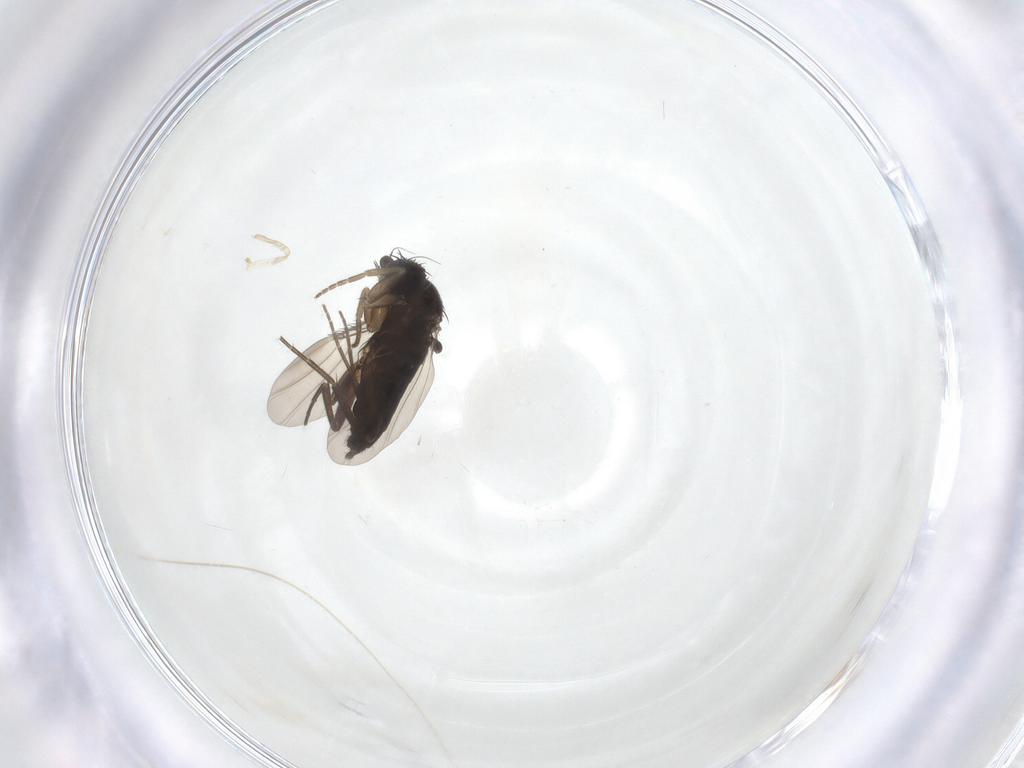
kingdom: Animalia
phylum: Arthropoda
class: Insecta
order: Diptera
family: Phoridae
